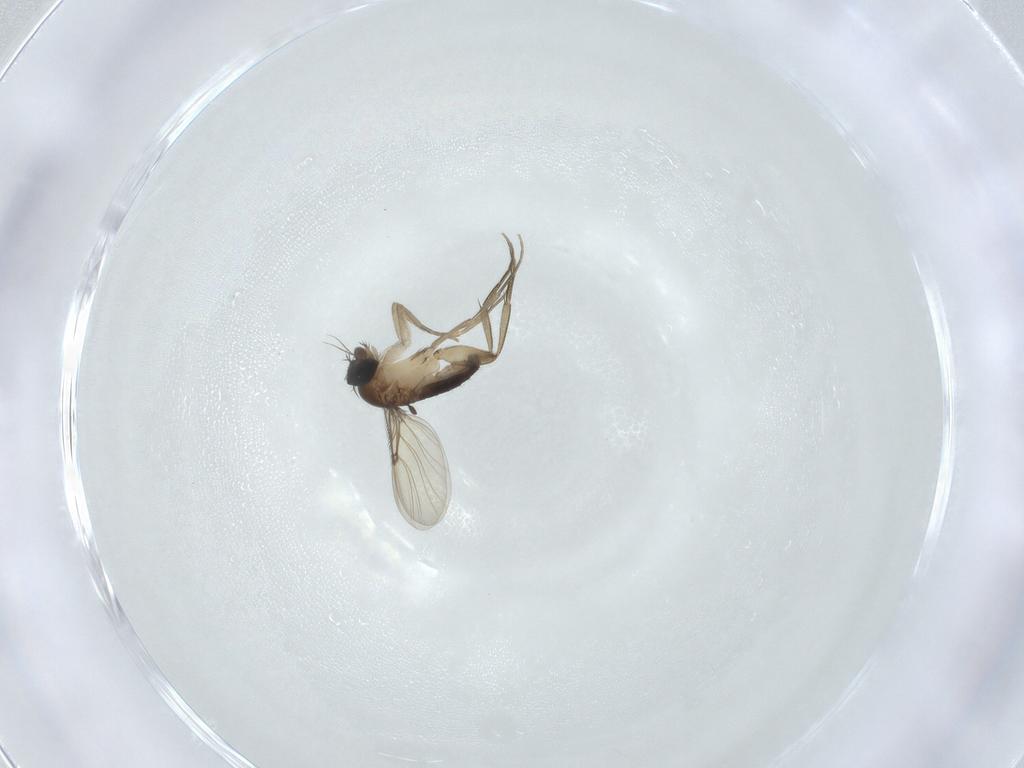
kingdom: Animalia
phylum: Arthropoda
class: Insecta
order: Diptera
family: Phoridae
